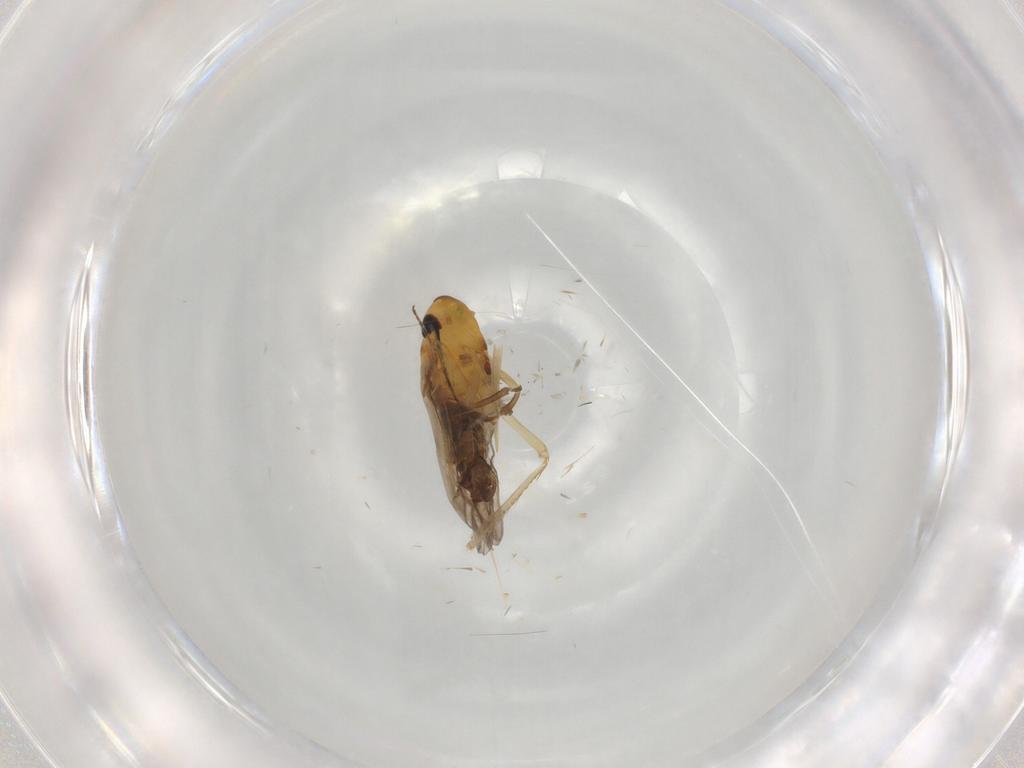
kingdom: Animalia
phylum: Arthropoda
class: Insecta
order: Hemiptera
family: Cicadellidae
